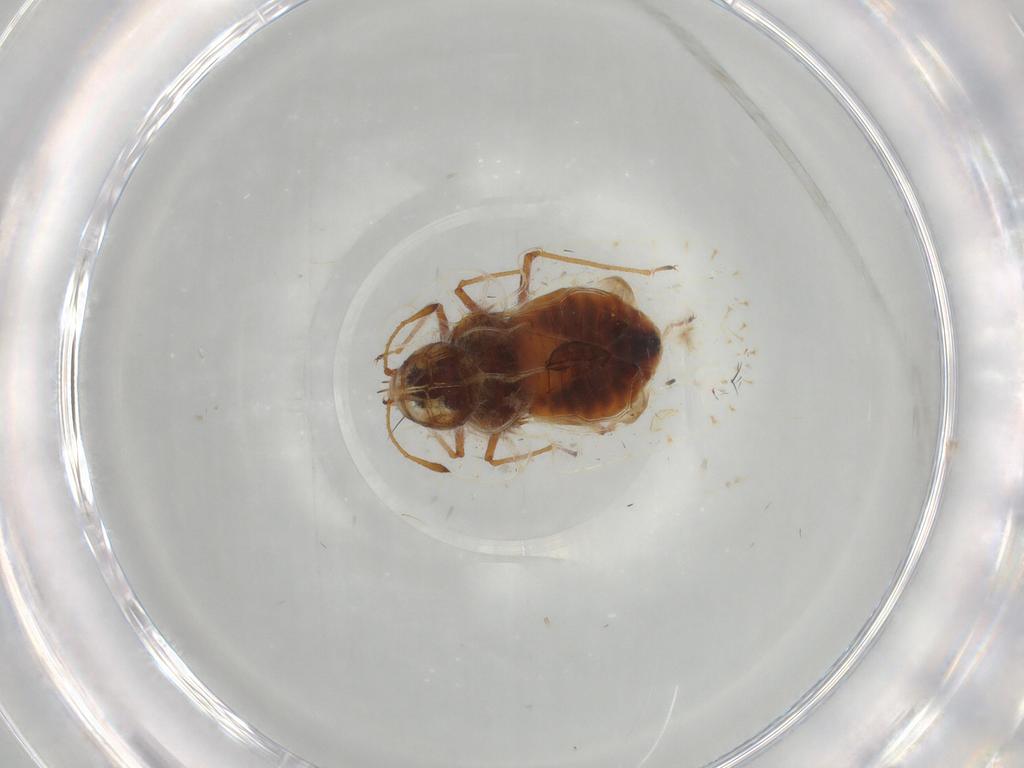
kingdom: Animalia
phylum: Arthropoda
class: Insecta
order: Hemiptera
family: Tingidae
